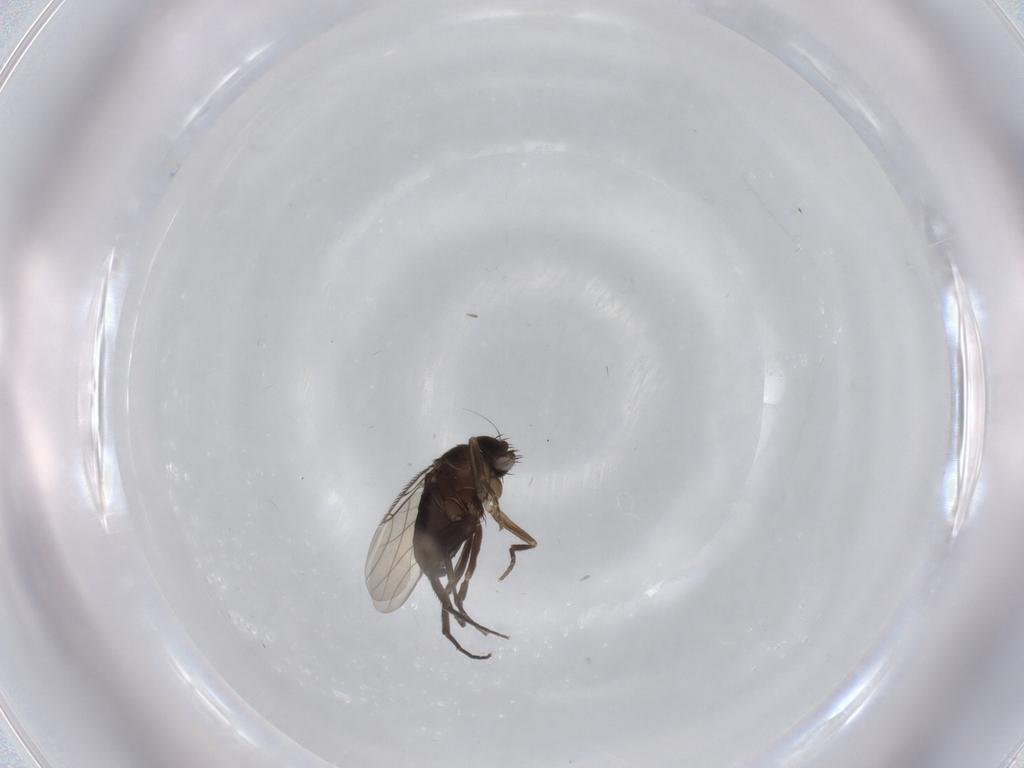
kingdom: Animalia
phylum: Arthropoda
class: Insecta
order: Diptera
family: Phoridae
